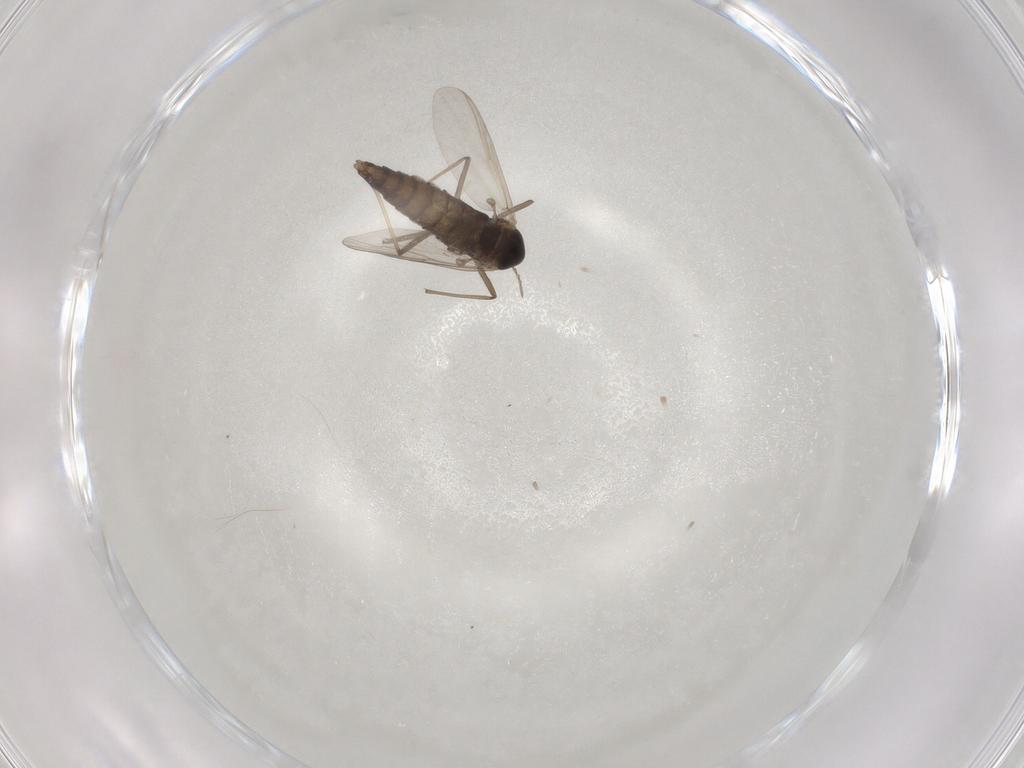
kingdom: Animalia
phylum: Arthropoda
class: Insecta
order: Diptera
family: Chironomidae
